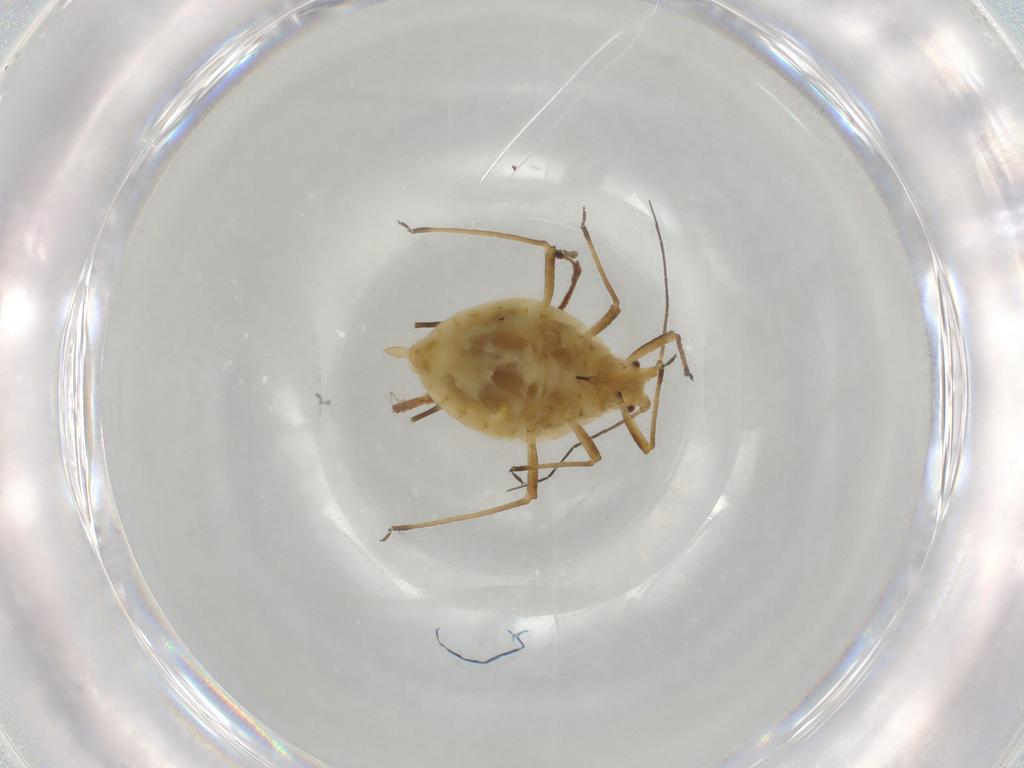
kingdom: Animalia
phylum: Arthropoda
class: Insecta
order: Hemiptera
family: Aphididae
